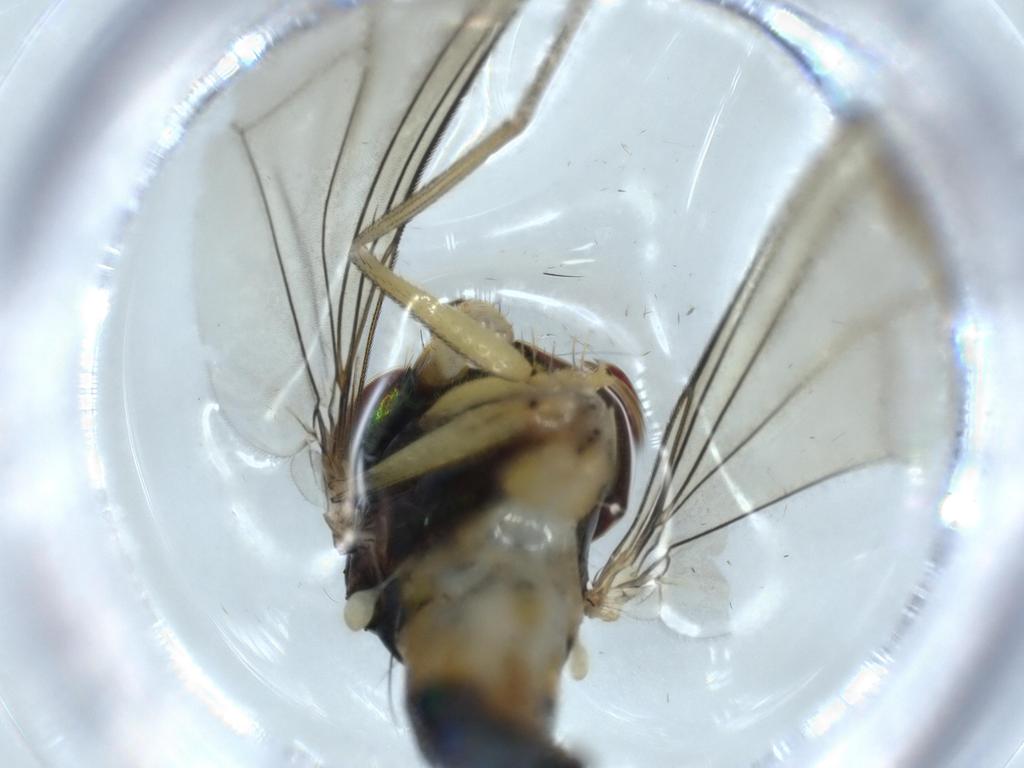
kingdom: Animalia
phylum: Arthropoda
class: Insecta
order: Diptera
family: Dolichopodidae
